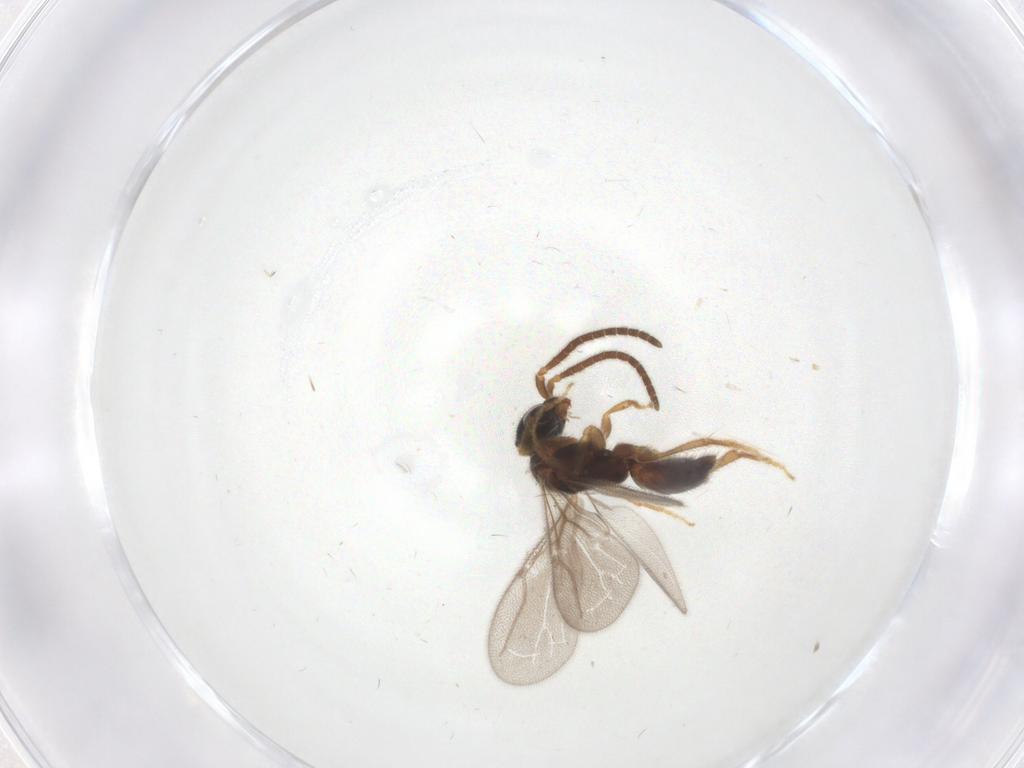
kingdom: Animalia
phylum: Arthropoda
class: Insecta
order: Hymenoptera
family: Bethylidae
